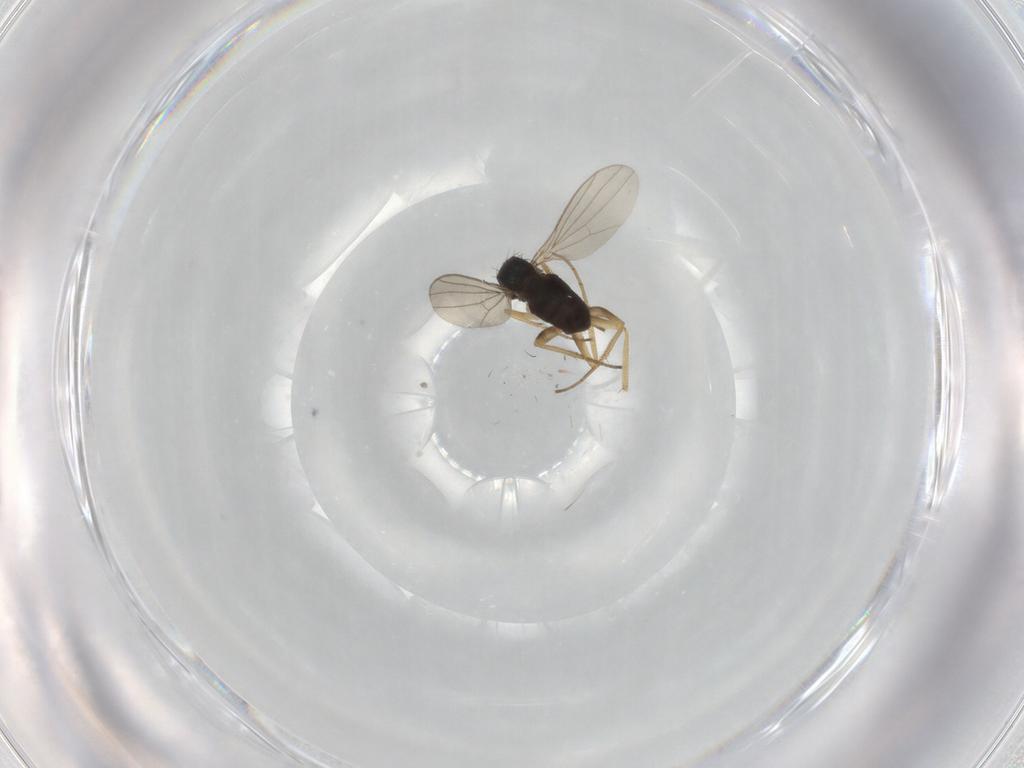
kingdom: Animalia
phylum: Arthropoda
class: Insecta
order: Diptera
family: Dolichopodidae
